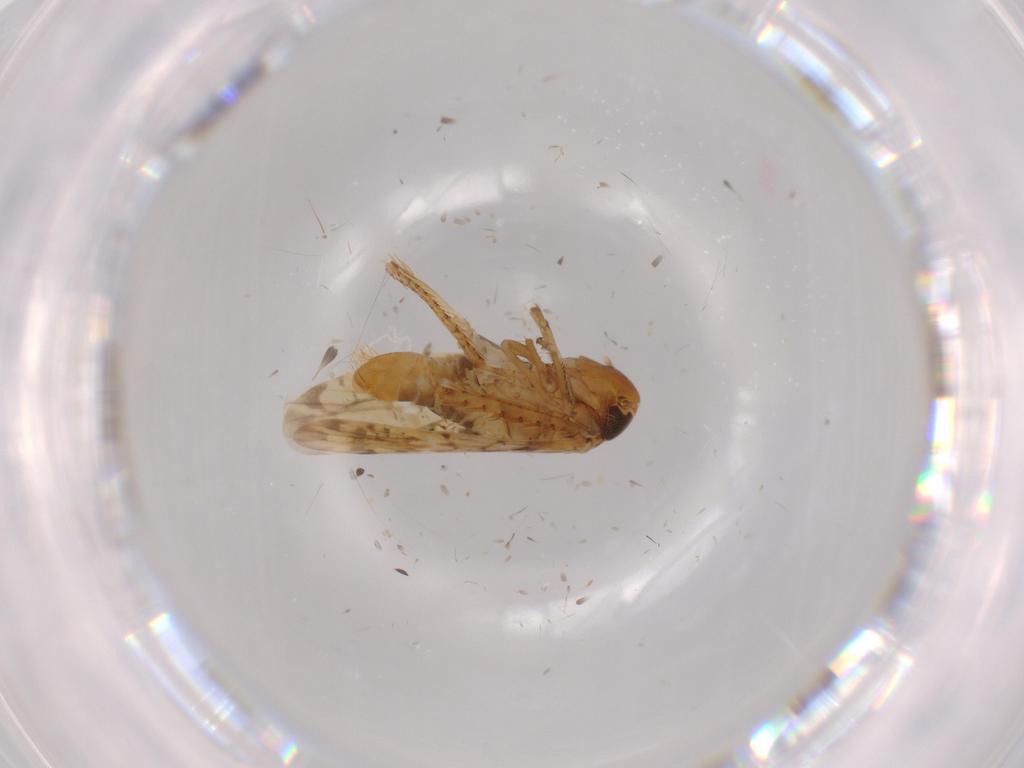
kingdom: Animalia
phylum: Arthropoda
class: Insecta
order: Hemiptera
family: Cicadellidae
